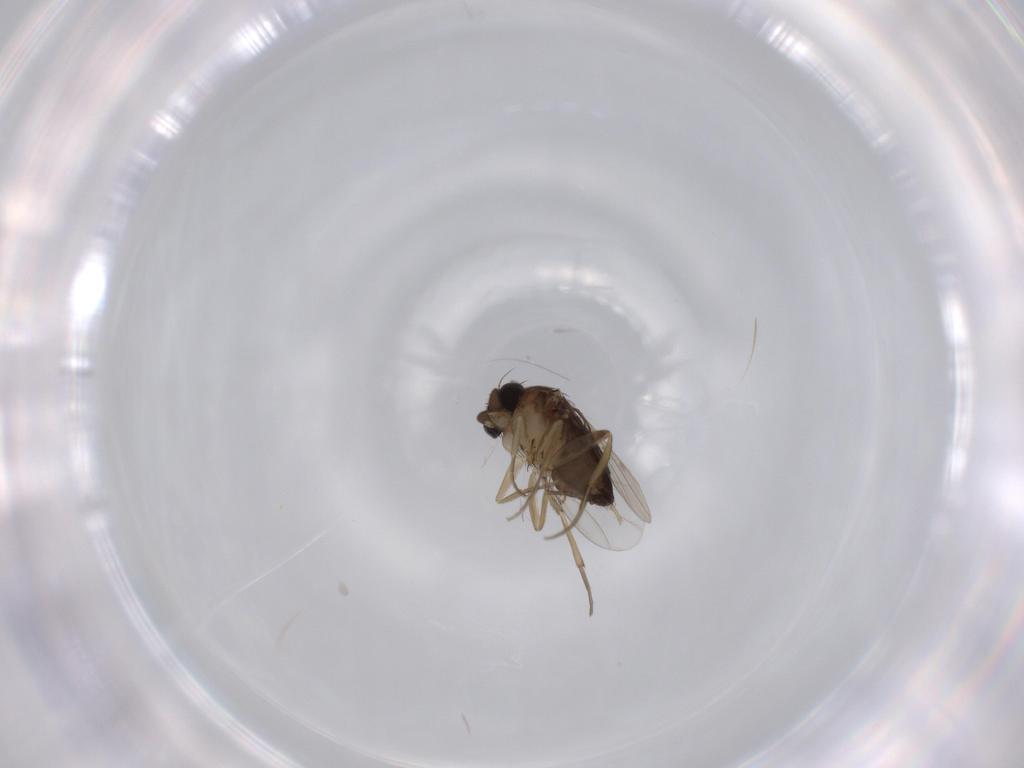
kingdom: Animalia
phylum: Arthropoda
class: Insecta
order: Diptera
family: Phoridae
